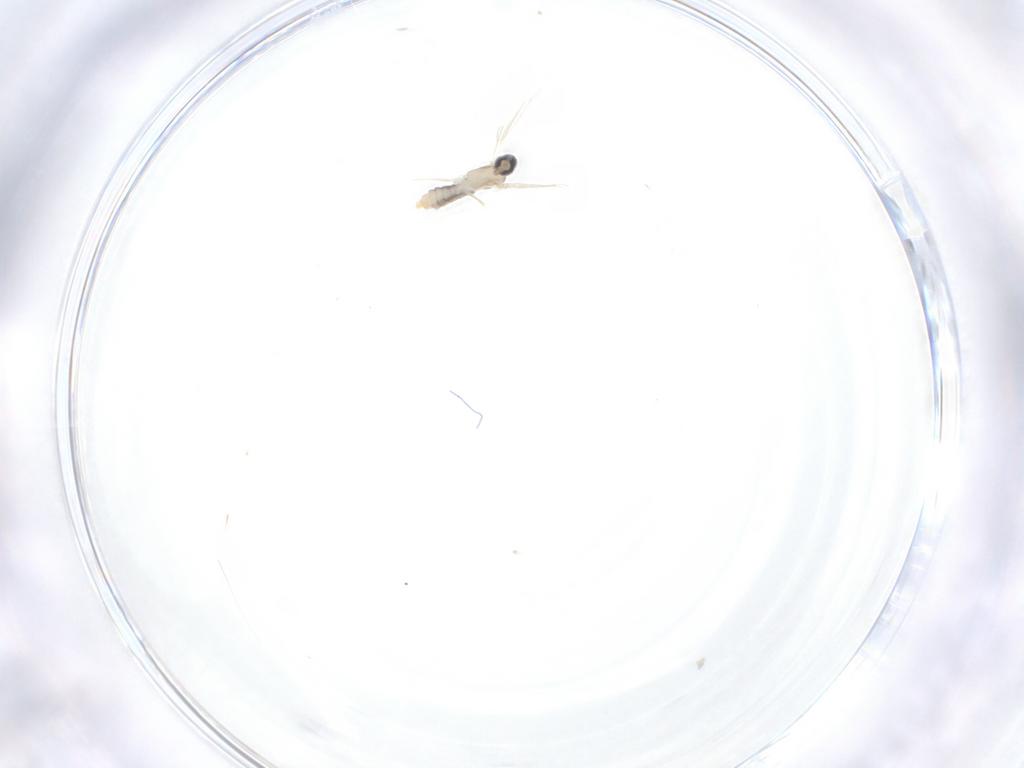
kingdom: Animalia
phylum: Arthropoda
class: Insecta
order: Diptera
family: Cecidomyiidae
